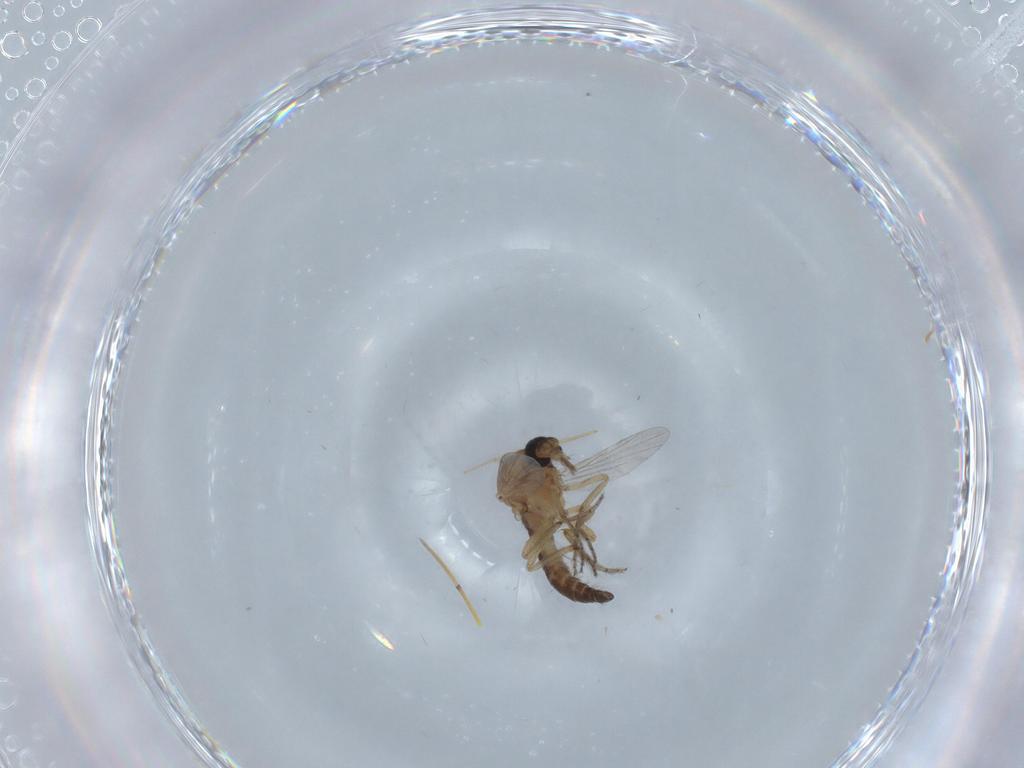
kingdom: Animalia
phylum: Arthropoda
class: Insecta
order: Diptera
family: Ceratopogonidae
